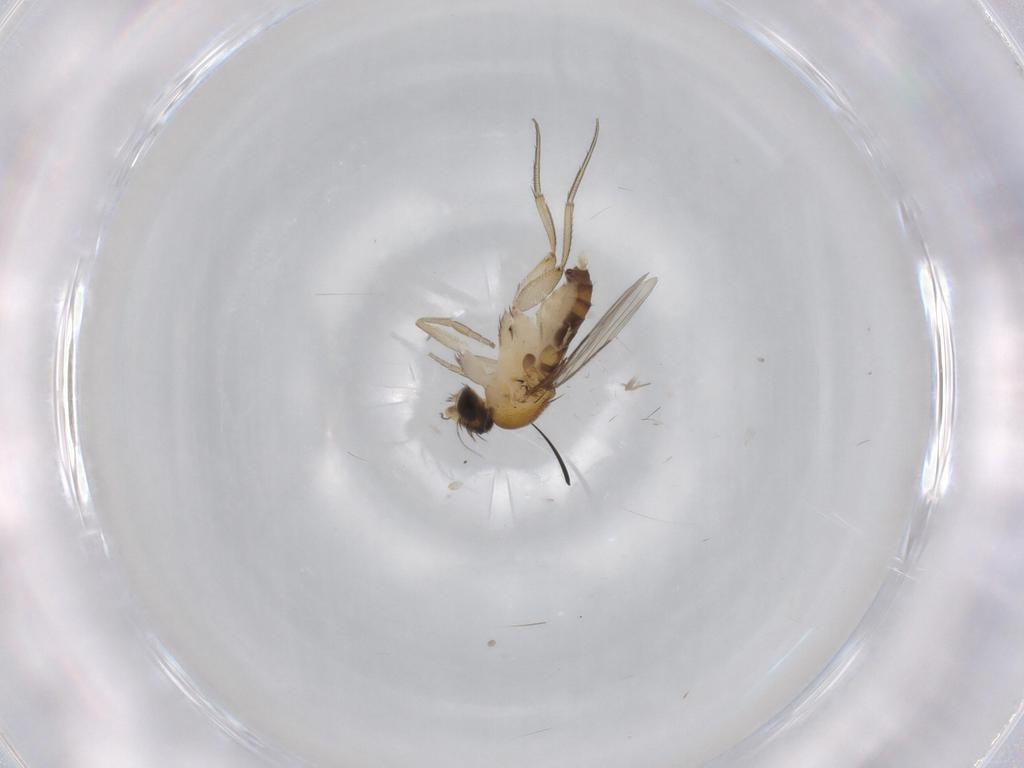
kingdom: Animalia
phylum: Arthropoda
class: Insecta
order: Diptera
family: Phoridae
